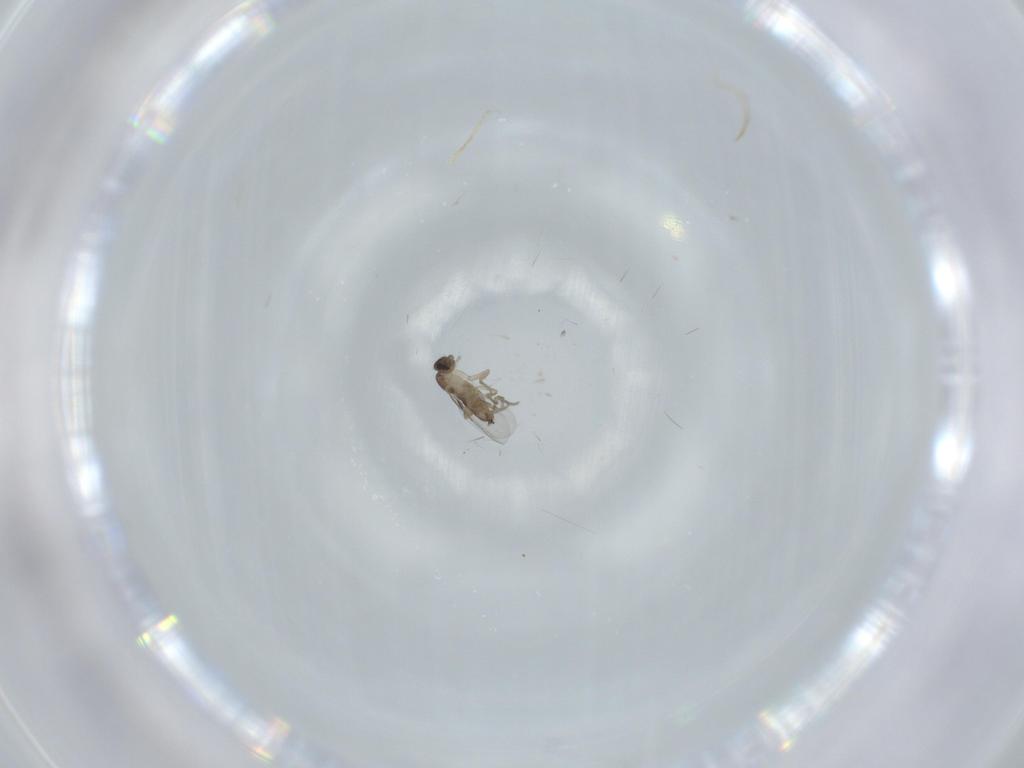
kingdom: Animalia
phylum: Arthropoda
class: Insecta
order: Diptera
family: Phoridae
